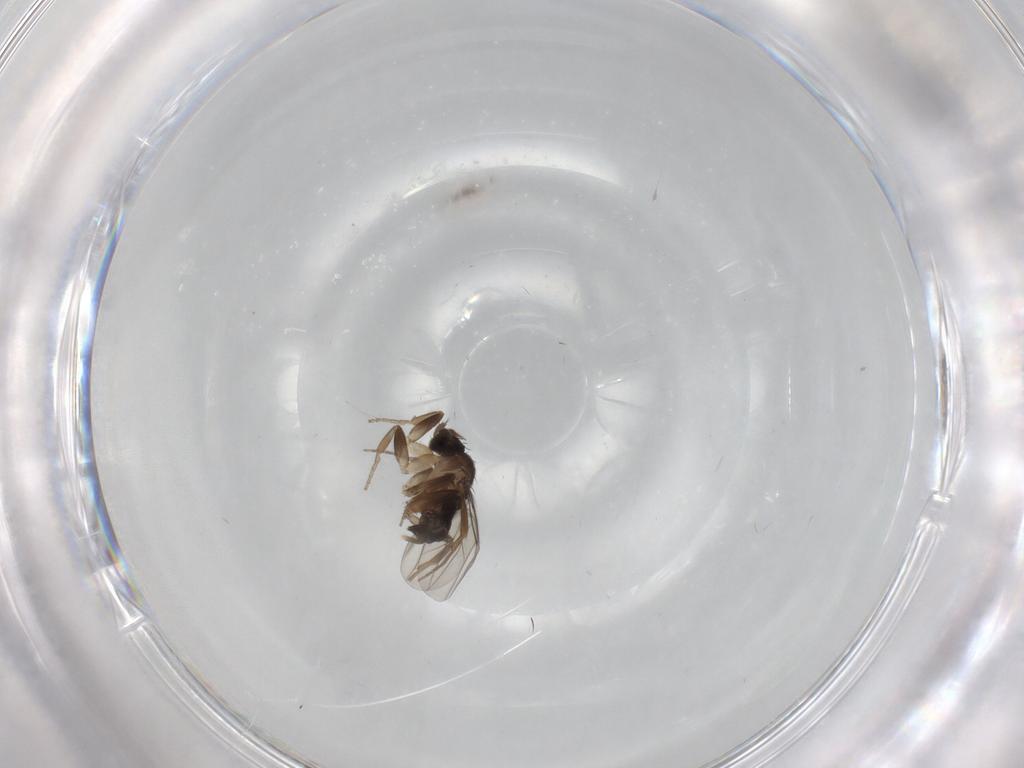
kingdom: Animalia
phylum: Arthropoda
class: Insecta
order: Diptera
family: Phoridae
